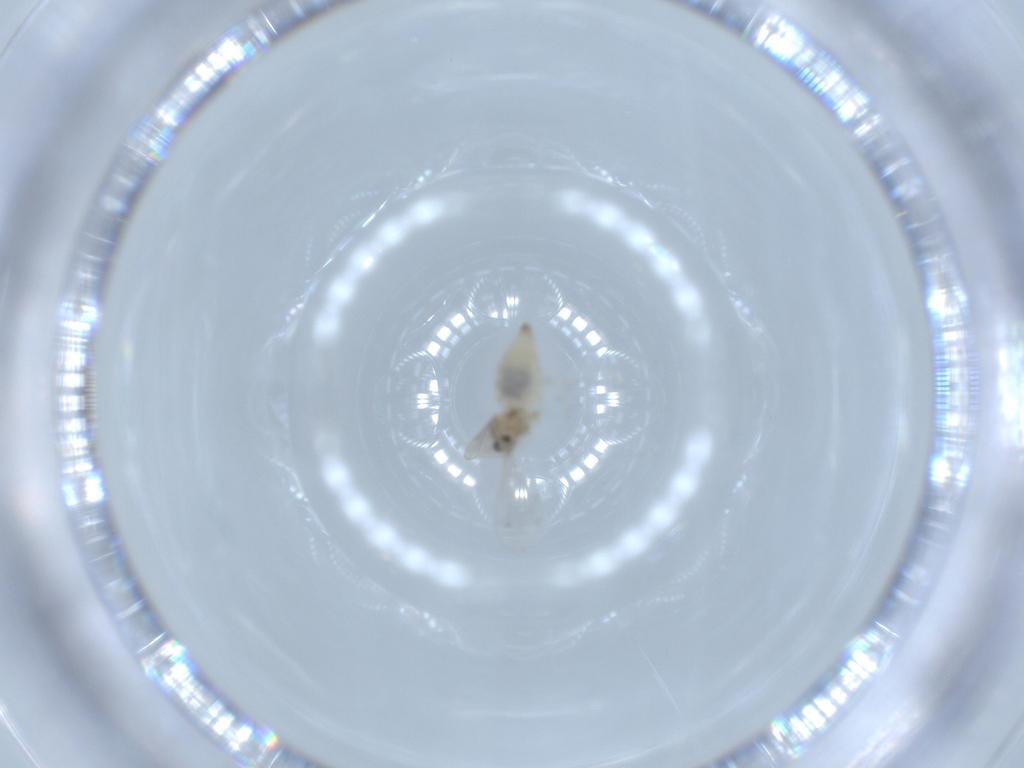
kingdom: Animalia
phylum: Arthropoda
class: Insecta
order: Diptera
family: Cecidomyiidae
